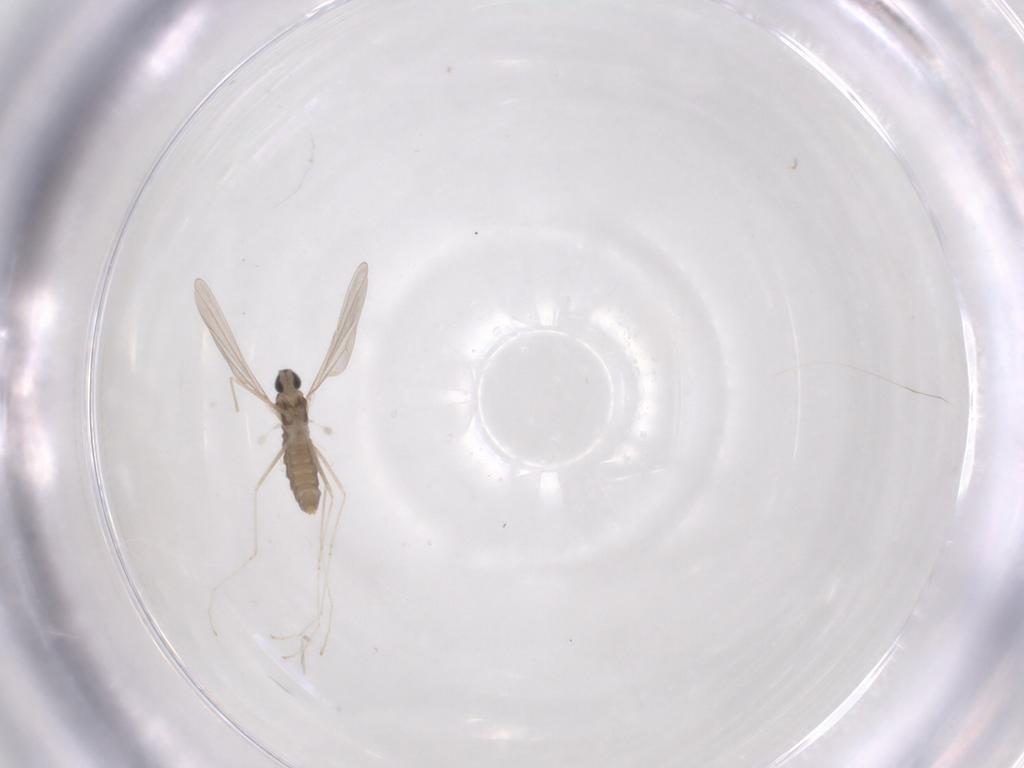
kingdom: Animalia
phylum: Arthropoda
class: Insecta
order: Diptera
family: Cecidomyiidae
